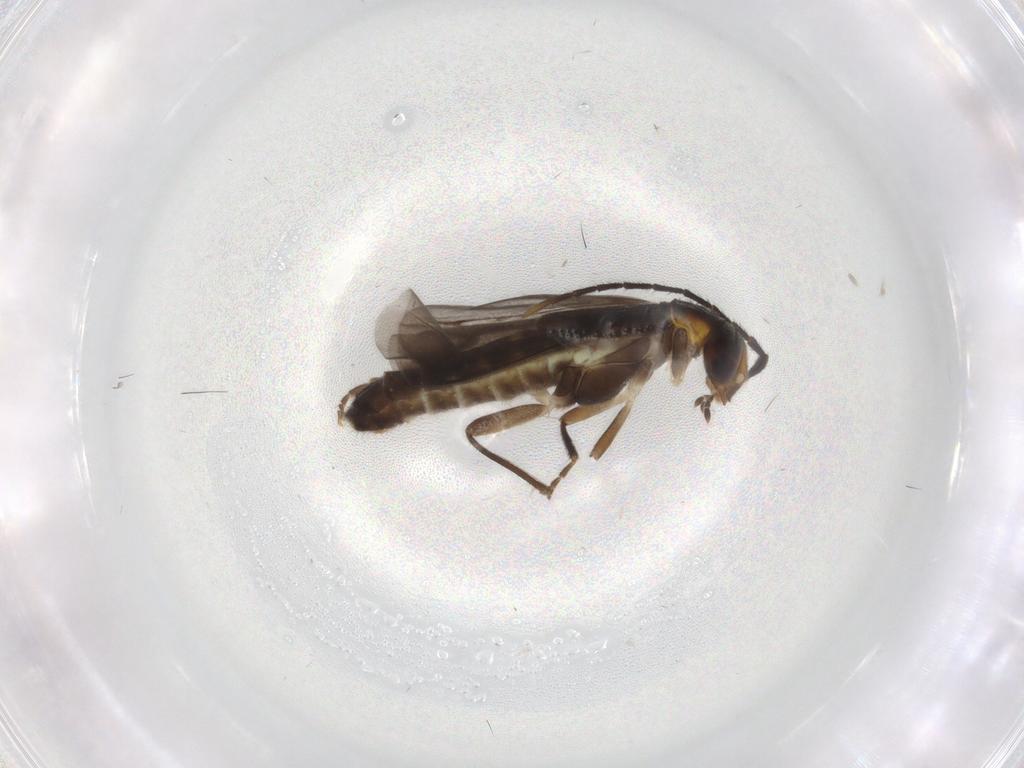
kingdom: Animalia
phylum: Arthropoda
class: Insecta
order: Coleoptera
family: Cantharidae
